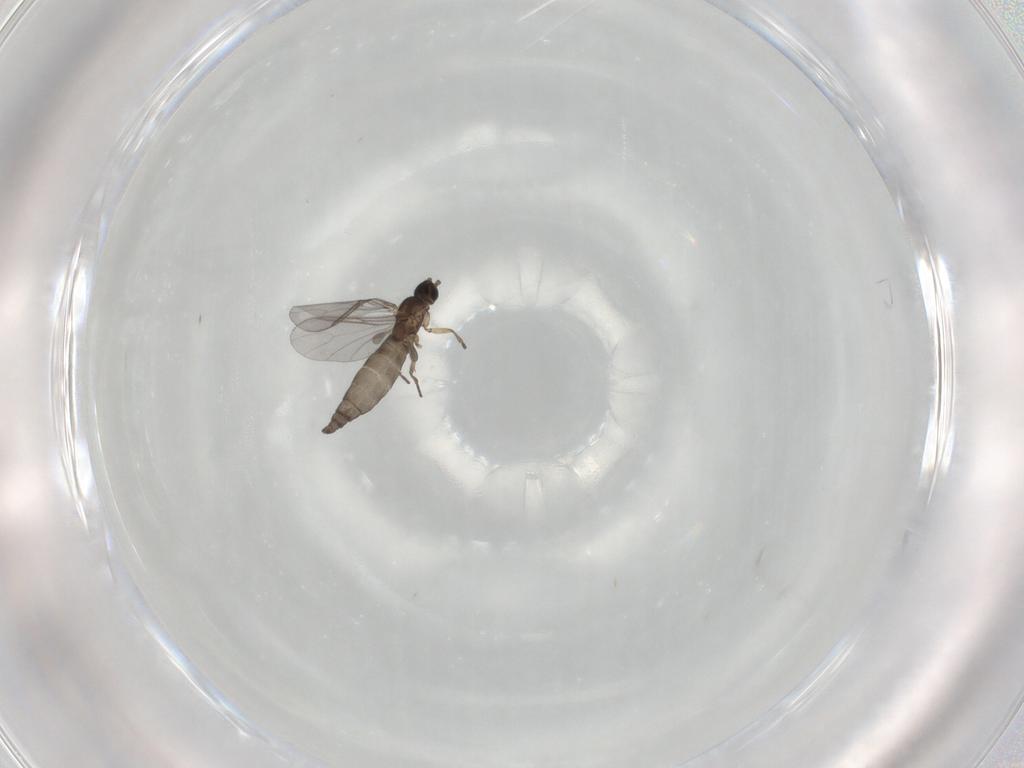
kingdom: Animalia
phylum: Arthropoda
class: Insecta
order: Diptera
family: Sciaridae
